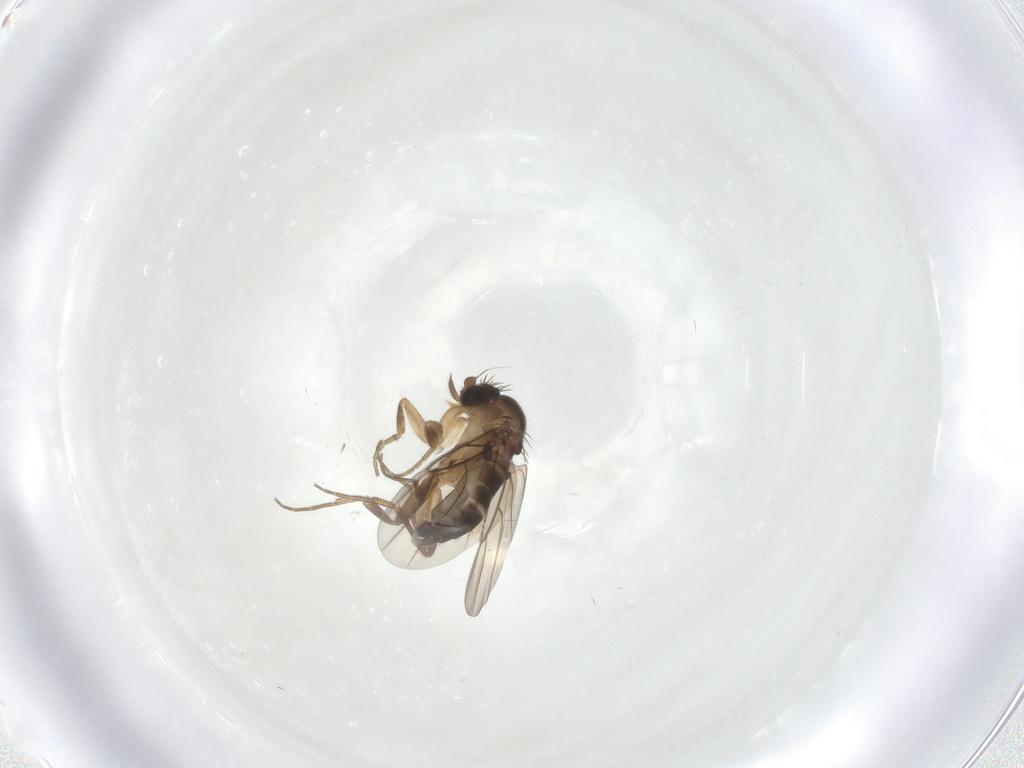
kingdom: Animalia
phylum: Arthropoda
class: Insecta
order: Diptera
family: Phoridae
